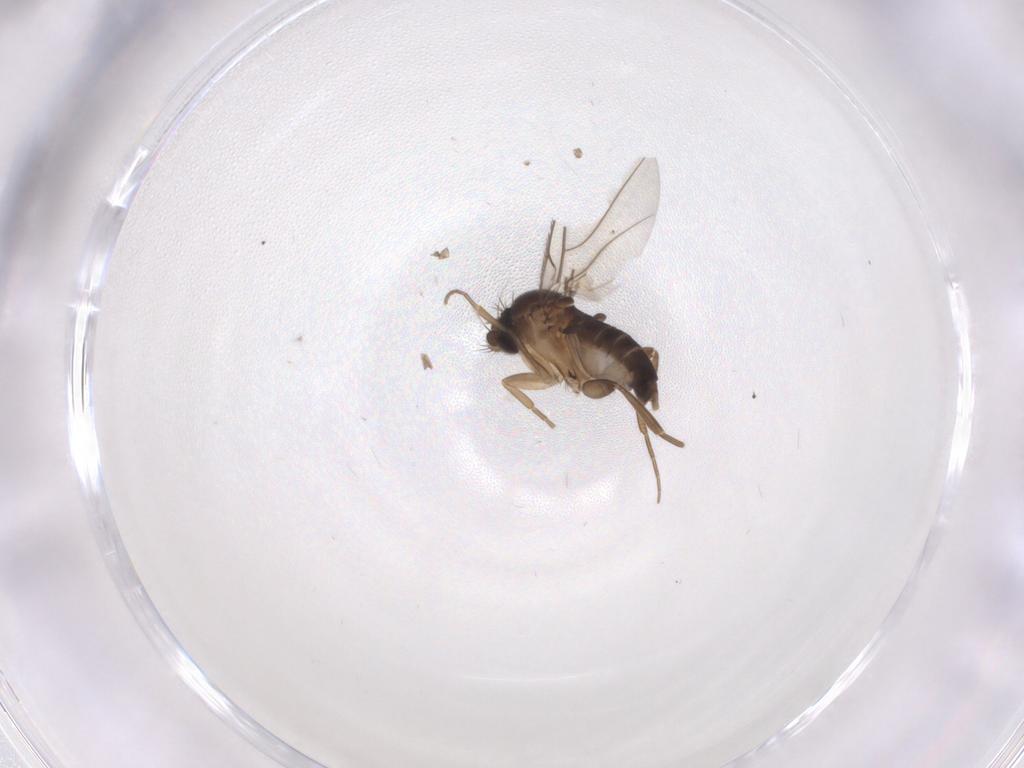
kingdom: Animalia
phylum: Arthropoda
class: Insecta
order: Diptera
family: Phoridae
